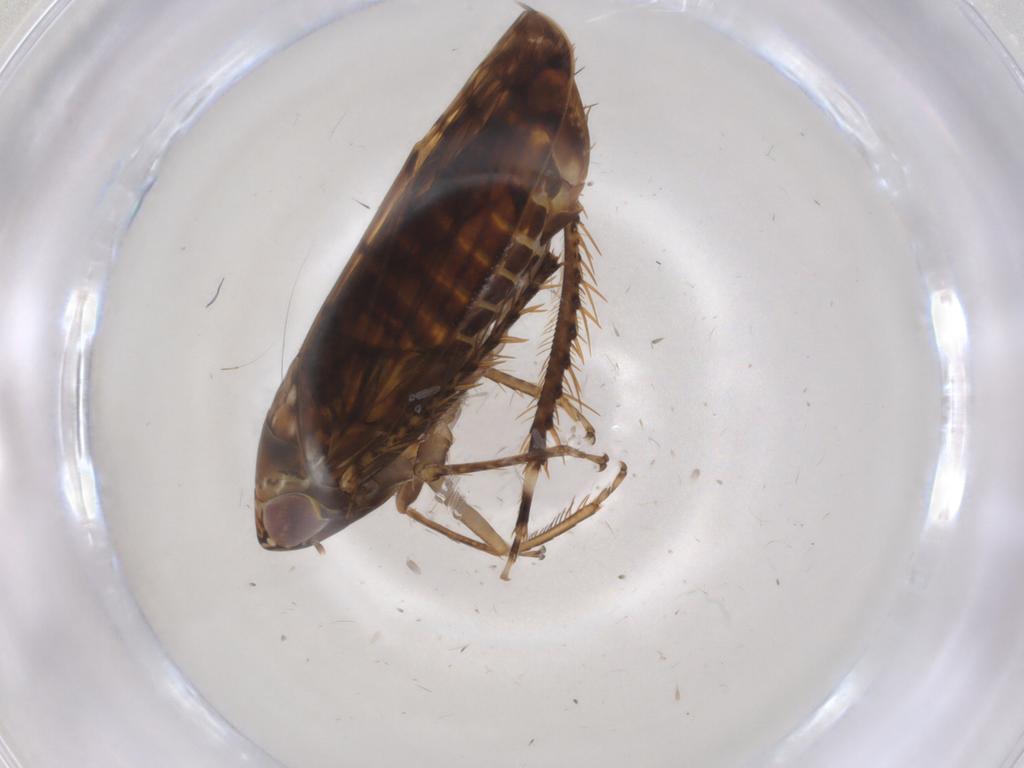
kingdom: Animalia
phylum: Arthropoda
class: Insecta
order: Hemiptera
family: Cicadellidae
